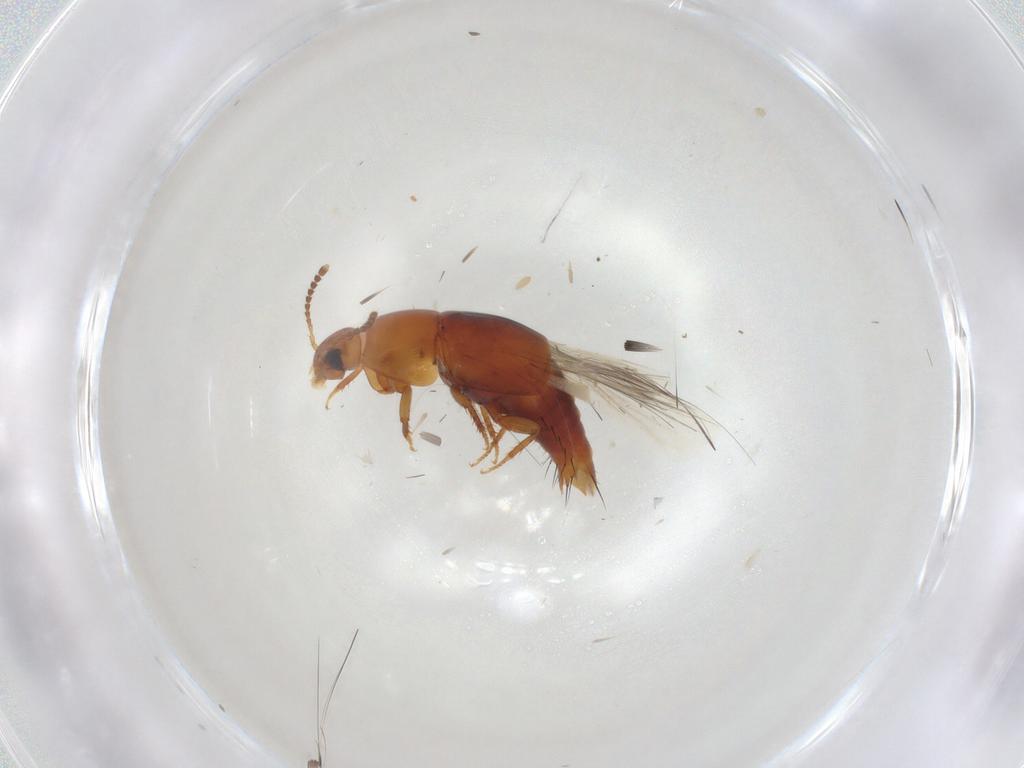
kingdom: Animalia
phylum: Arthropoda
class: Insecta
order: Coleoptera
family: Staphylinidae
